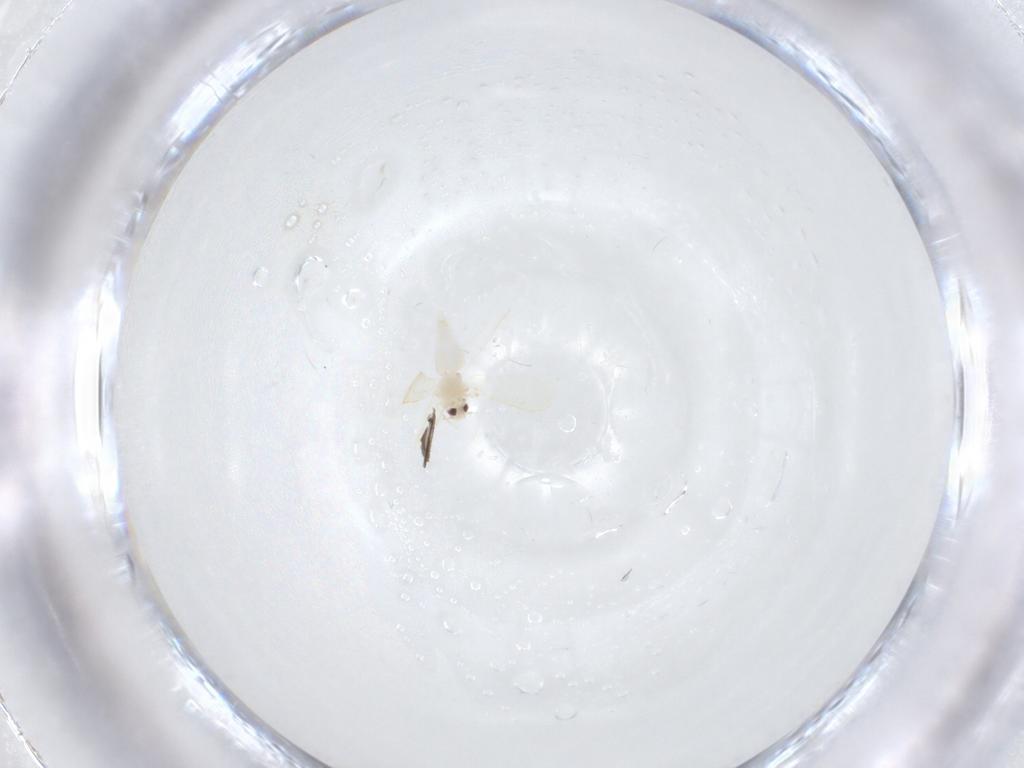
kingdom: Animalia
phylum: Arthropoda
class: Insecta
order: Hemiptera
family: Aleyrodidae
